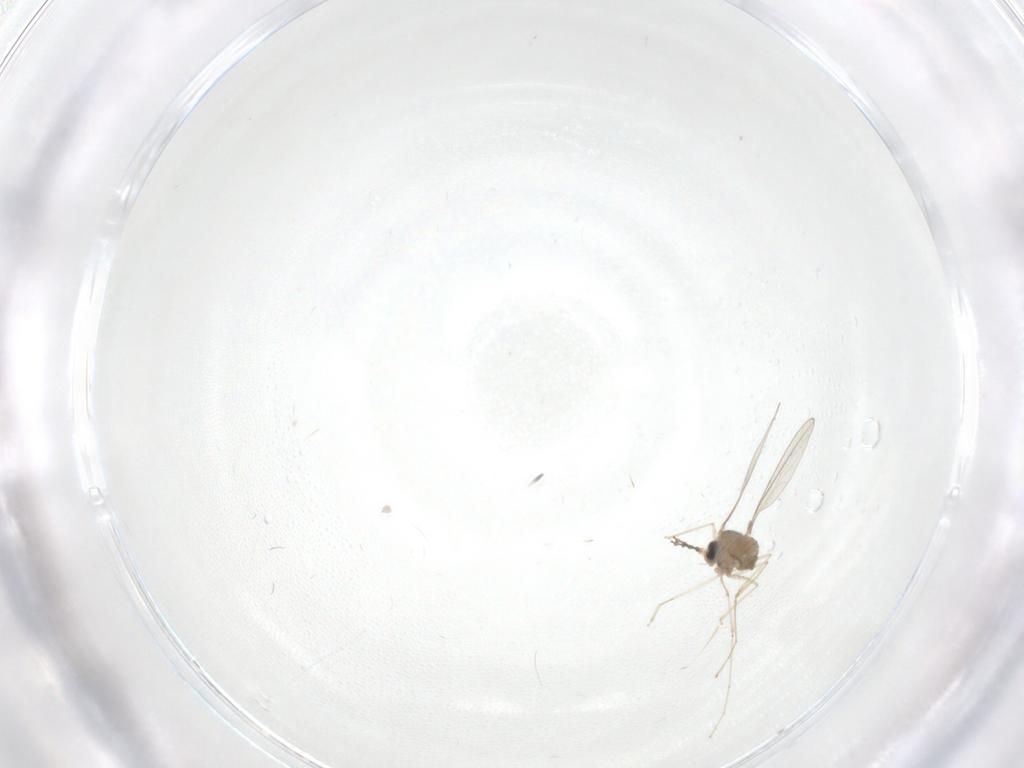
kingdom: Animalia
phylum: Arthropoda
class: Insecta
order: Diptera
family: Cecidomyiidae
